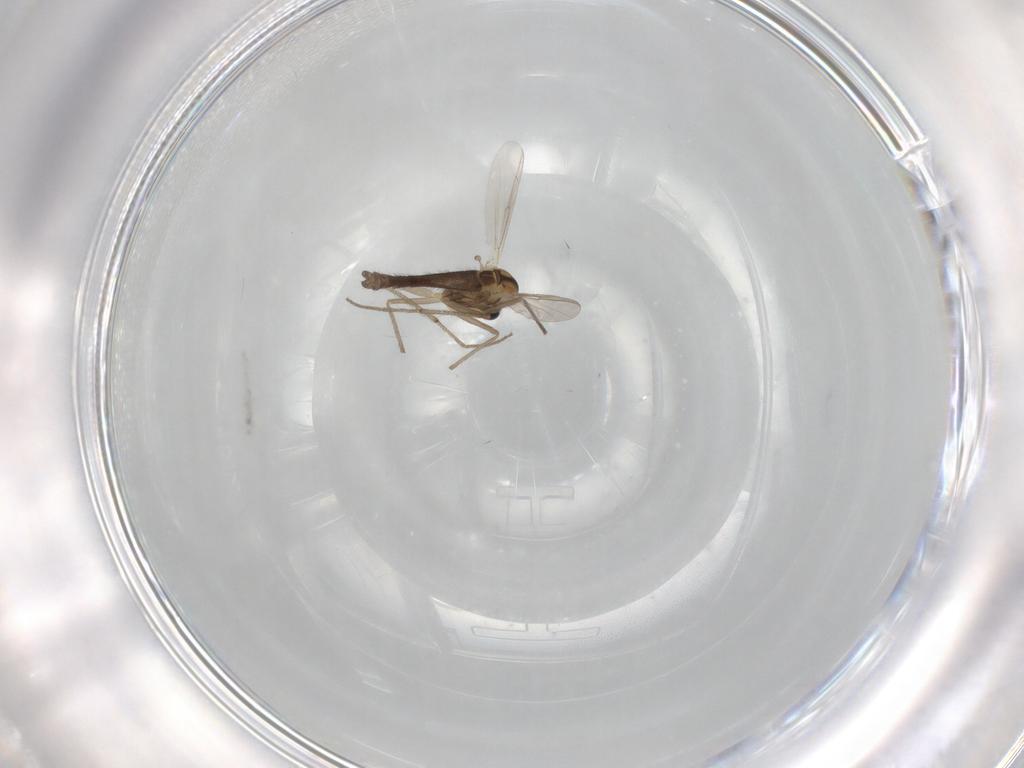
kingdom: Animalia
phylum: Arthropoda
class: Insecta
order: Diptera
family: Chironomidae
